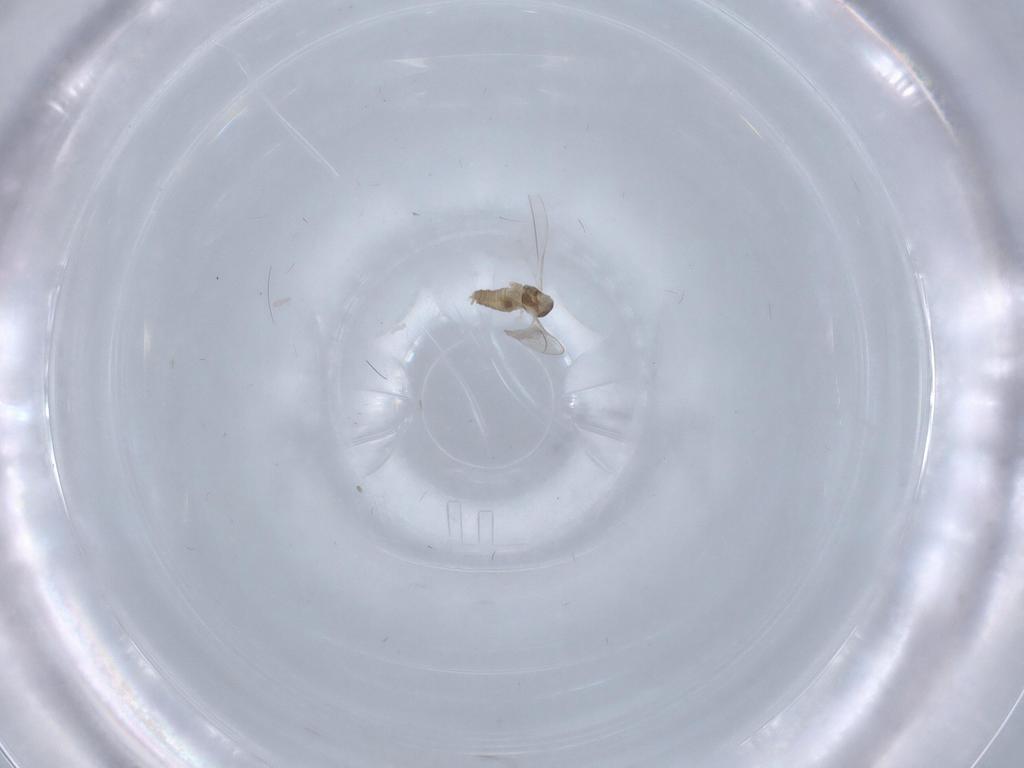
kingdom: Animalia
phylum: Arthropoda
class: Insecta
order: Diptera
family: Cecidomyiidae
